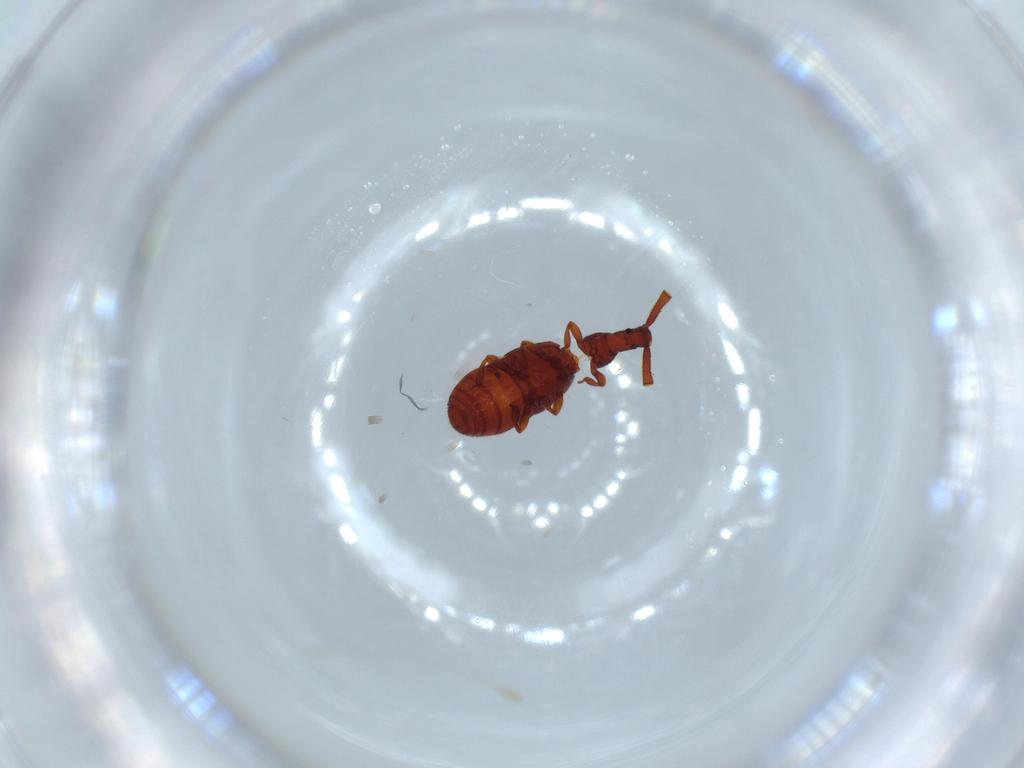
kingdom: Animalia
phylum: Arthropoda
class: Insecta
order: Coleoptera
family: Staphylinidae
